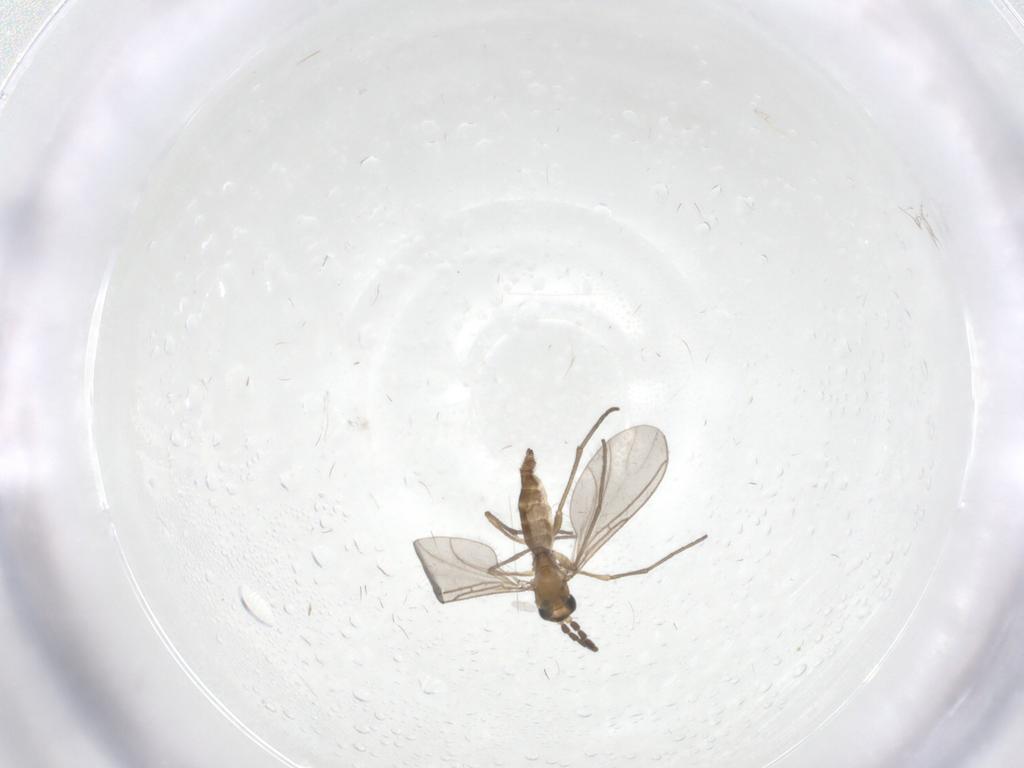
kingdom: Animalia
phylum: Arthropoda
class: Insecta
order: Diptera
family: Sciaridae
